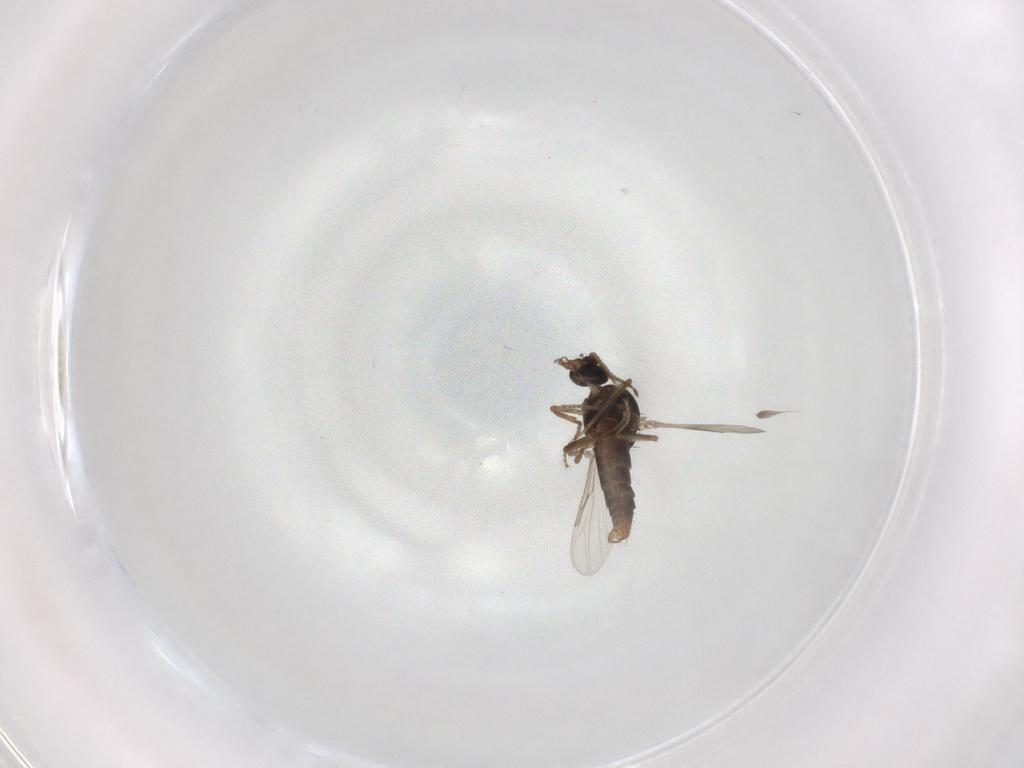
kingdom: Animalia
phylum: Arthropoda
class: Insecta
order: Diptera
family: Ceratopogonidae
